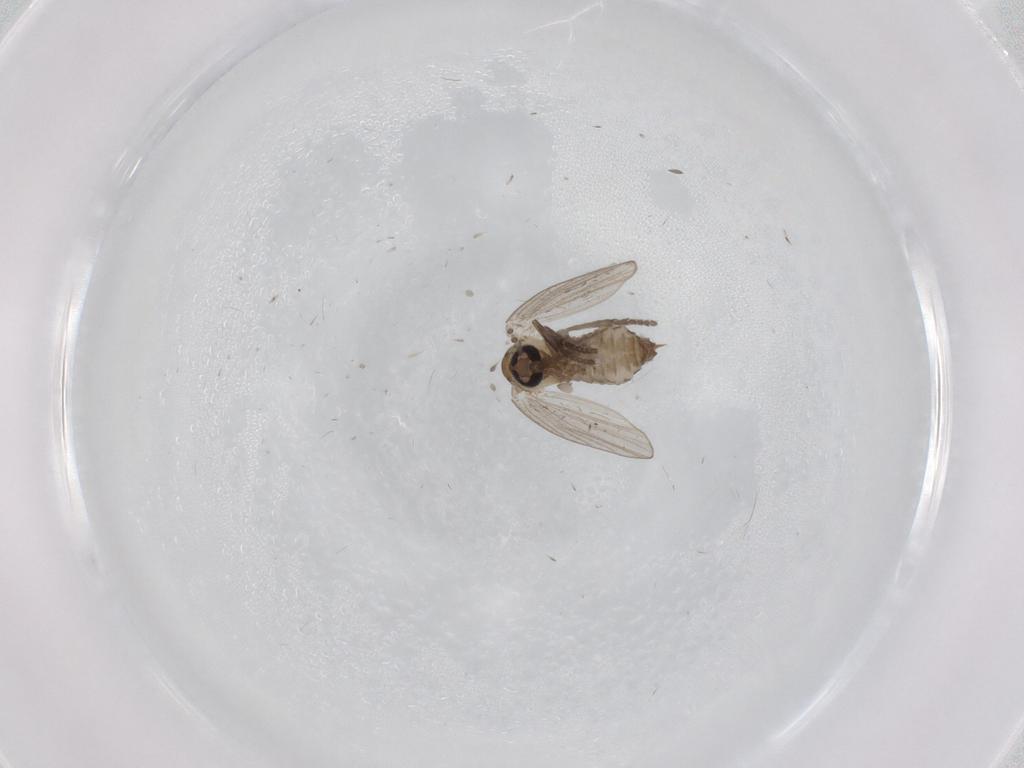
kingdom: Animalia
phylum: Arthropoda
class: Insecta
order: Diptera
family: Psychodidae
